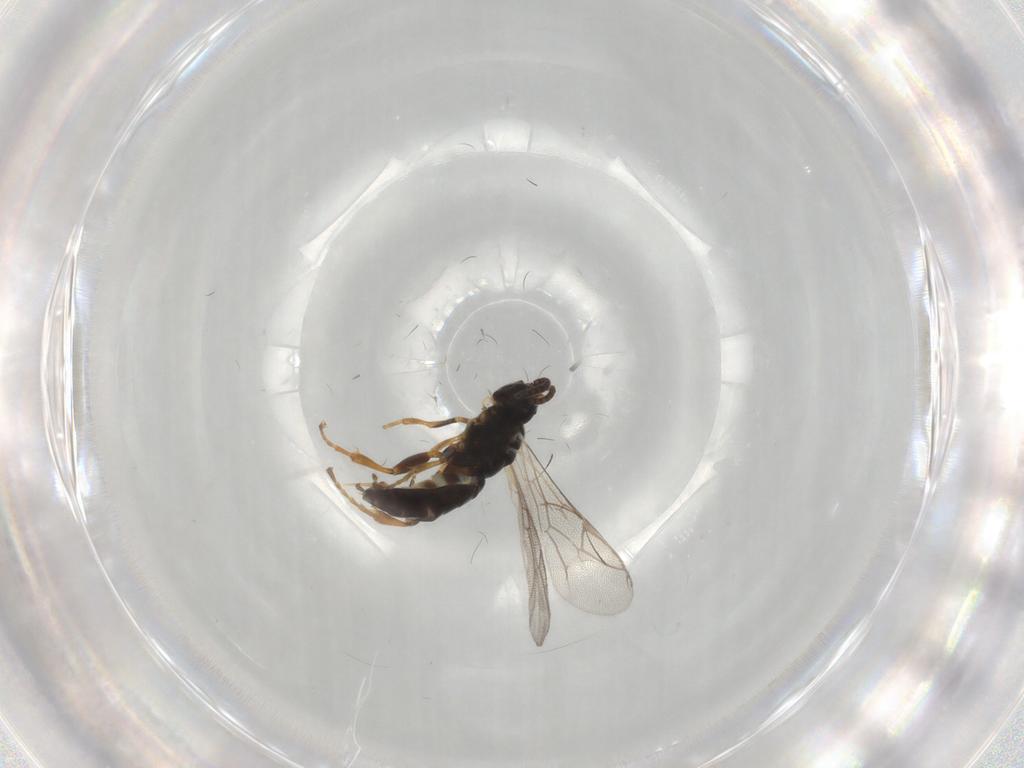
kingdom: Animalia
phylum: Arthropoda
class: Insecta
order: Hymenoptera
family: Ichneumonidae
